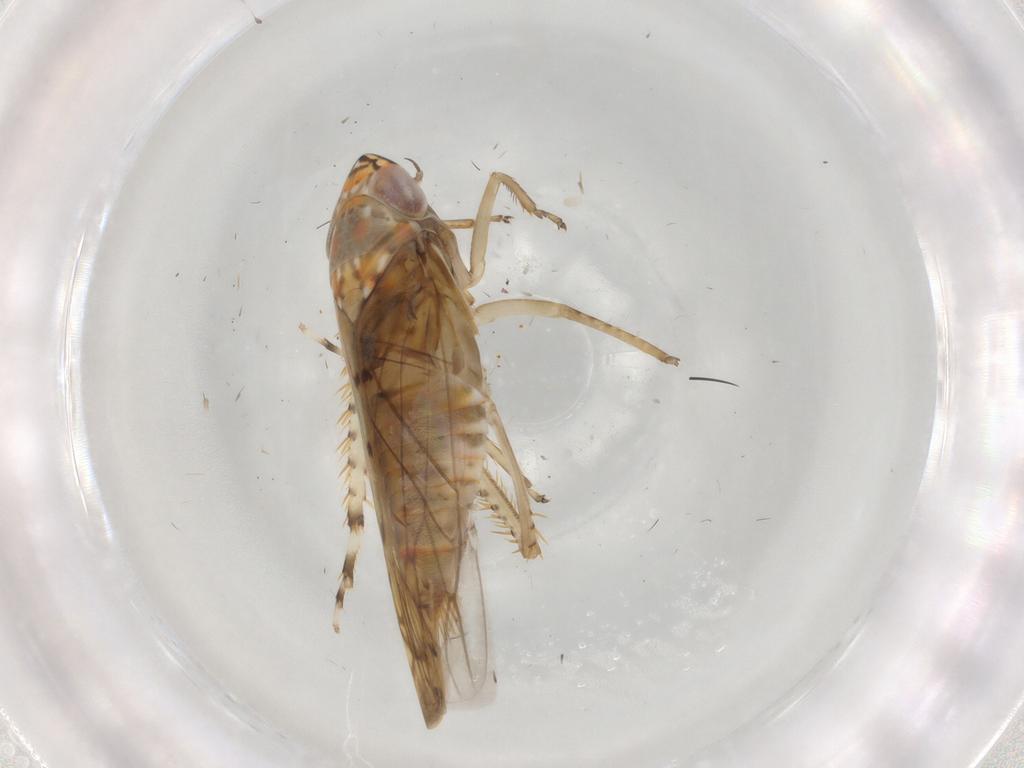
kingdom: Animalia
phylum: Arthropoda
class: Insecta
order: Hemiptera
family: Cicadellidae
